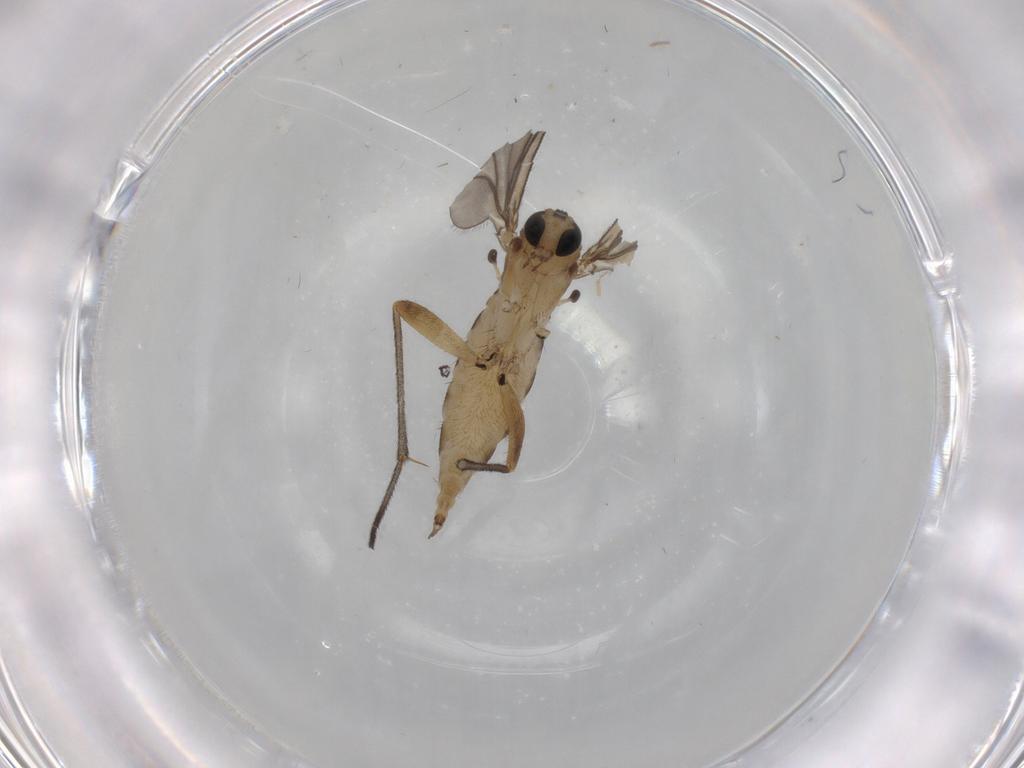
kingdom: Animalia
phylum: Arthropoda
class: Insecta
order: Diptera
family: Sciaridae
